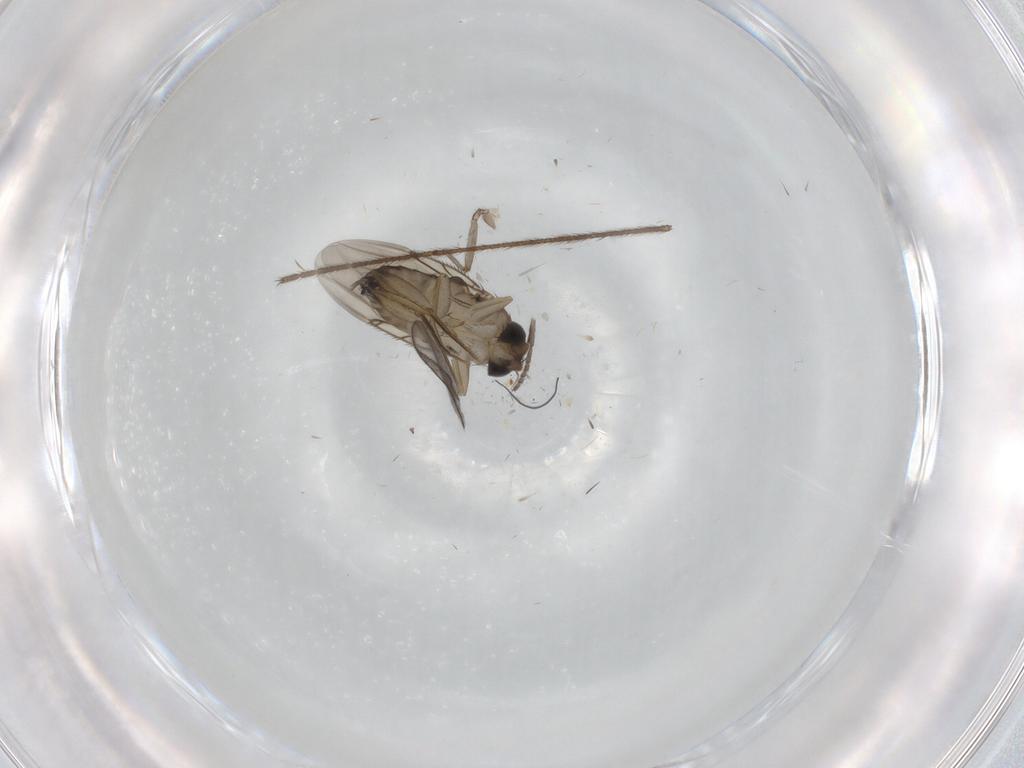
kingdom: Animalia
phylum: Arthropoda
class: Insecta
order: Diptera
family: Sciaridae
